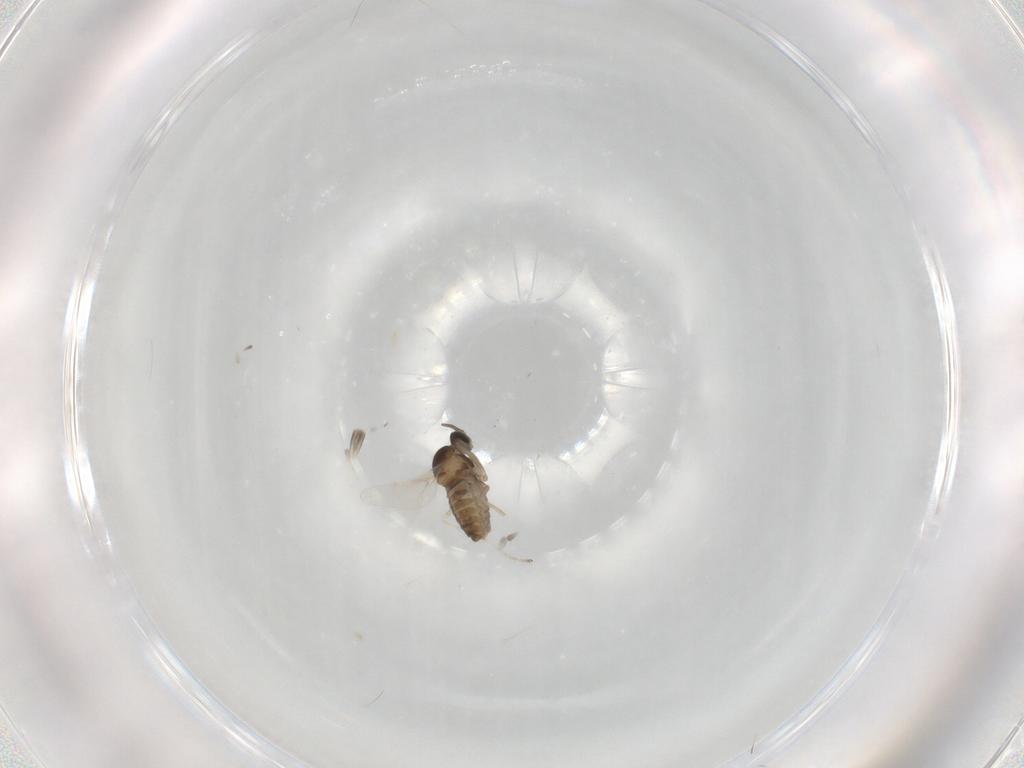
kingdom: Animalia
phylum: Arthropoda
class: Insecta
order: Diptera
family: Cecidomyiidae
